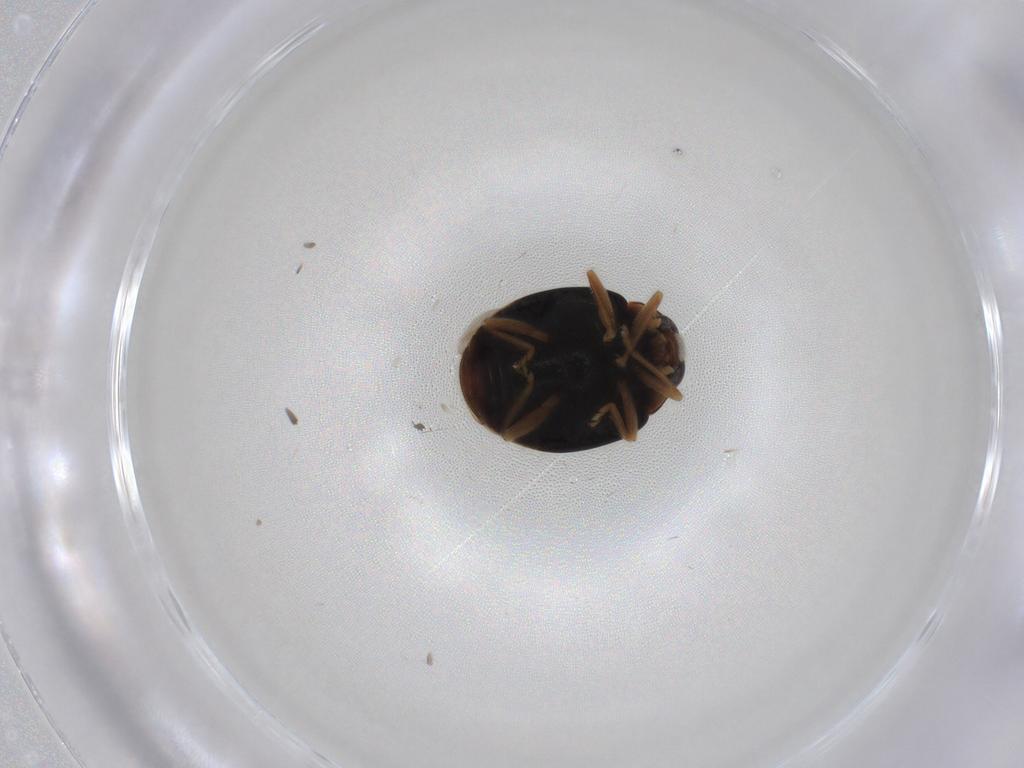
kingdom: Animalia
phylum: Arthropoda
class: Insecta
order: Coleoptera
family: Coccinellidae
